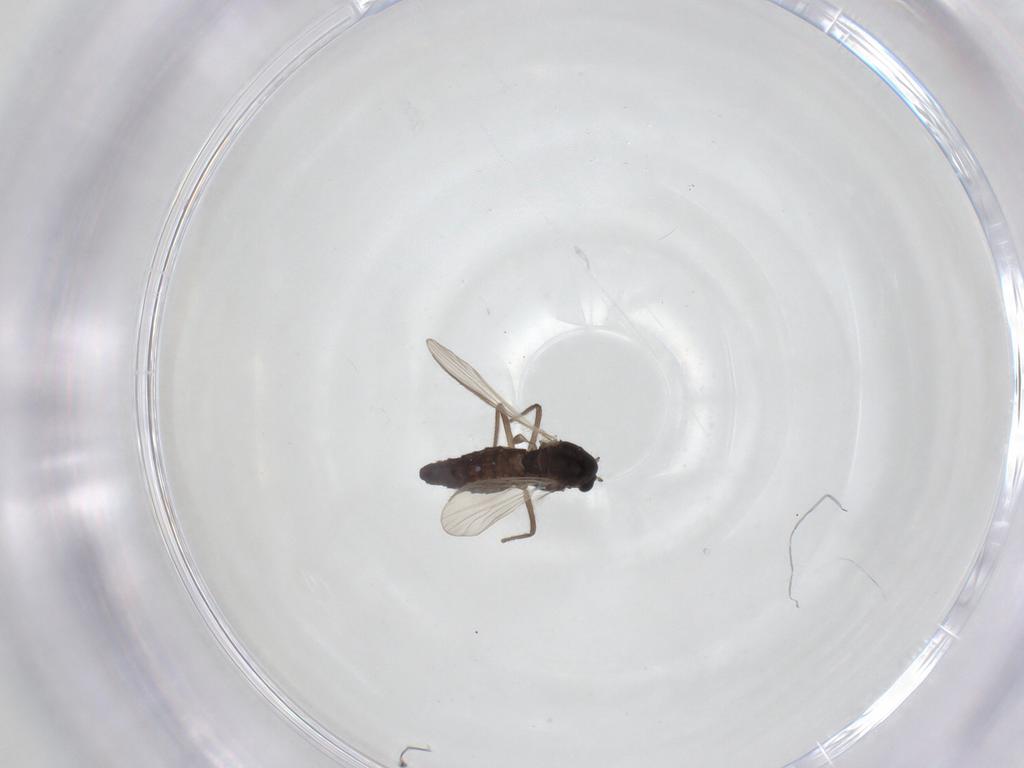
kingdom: Animalia
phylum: Arthropoda
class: Insecta
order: Diptera
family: Chironomidae
